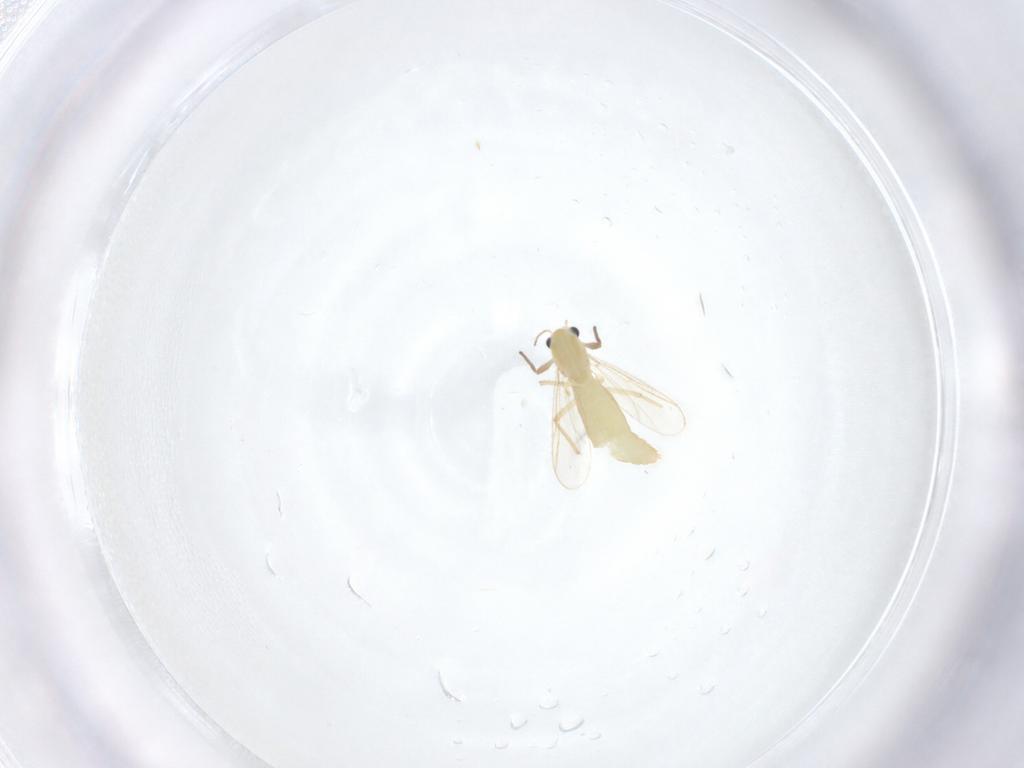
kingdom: Animalia
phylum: Arthropoda
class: Insecta
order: Diptera
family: Chironomidae
